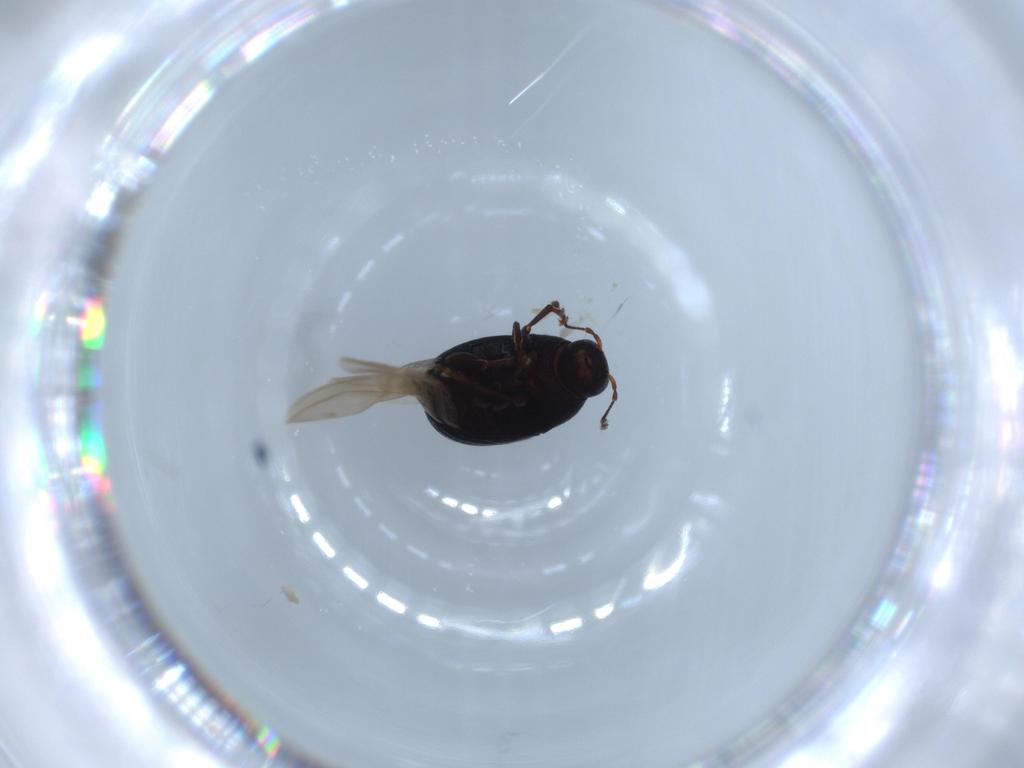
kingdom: Animalia
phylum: Arthropoda
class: Insecta
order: Coleoptera
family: Anthribidae
